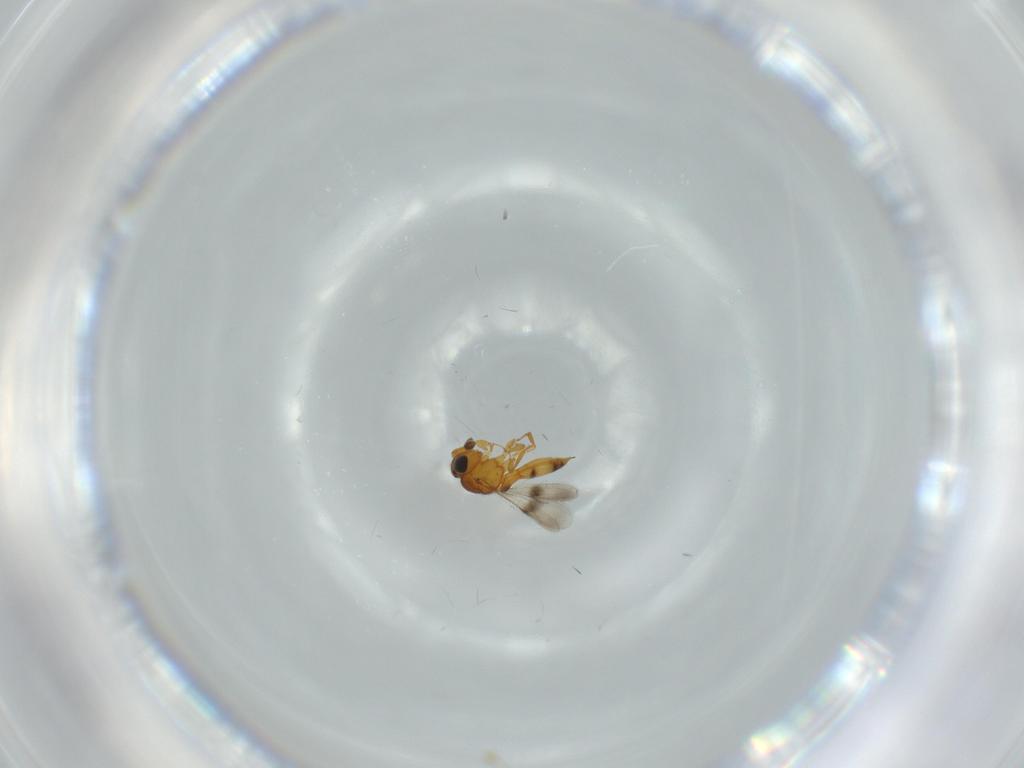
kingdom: Animalia
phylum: Arthropoda
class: Insecta
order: Hymenoptera
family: Scelionidae
